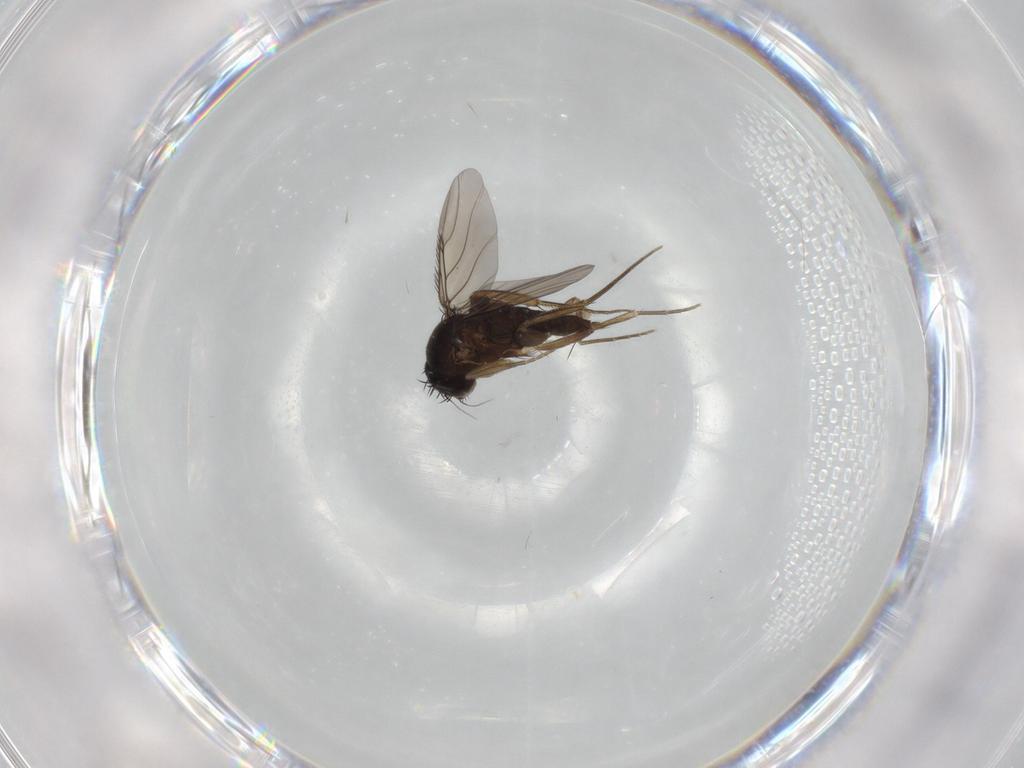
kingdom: Animalia
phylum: Arthropoda
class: Insecta
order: Diptera
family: Phoridae
